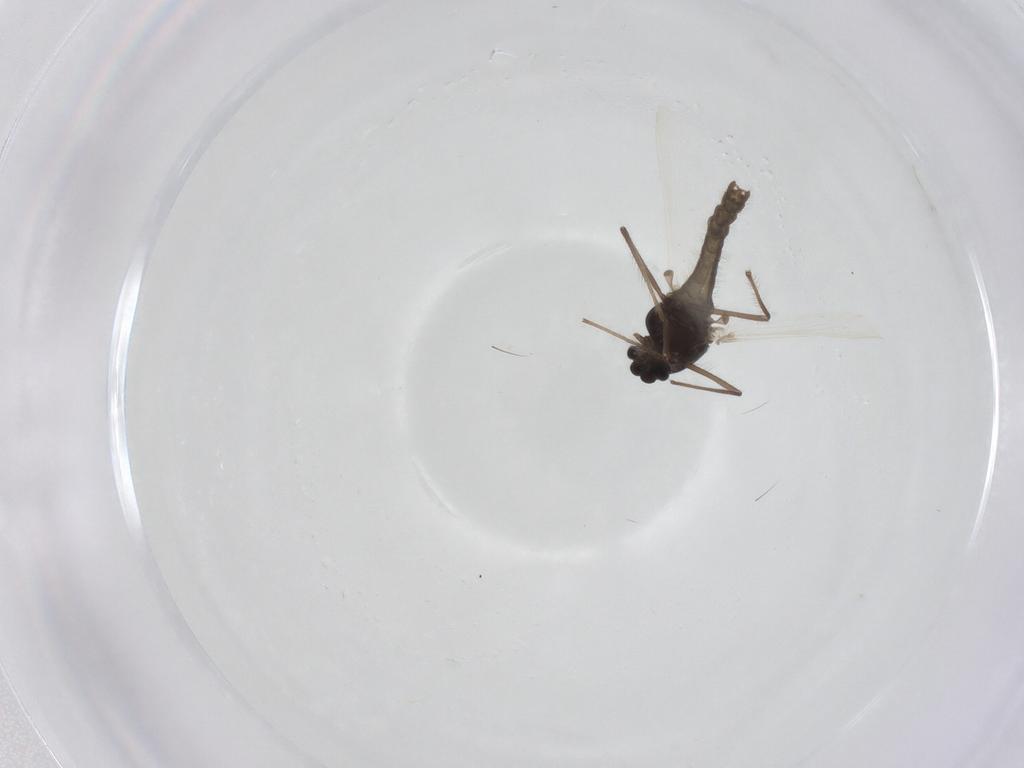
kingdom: Animalia
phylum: Arthropoda
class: Insecta
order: Diptera
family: Chironomidae
